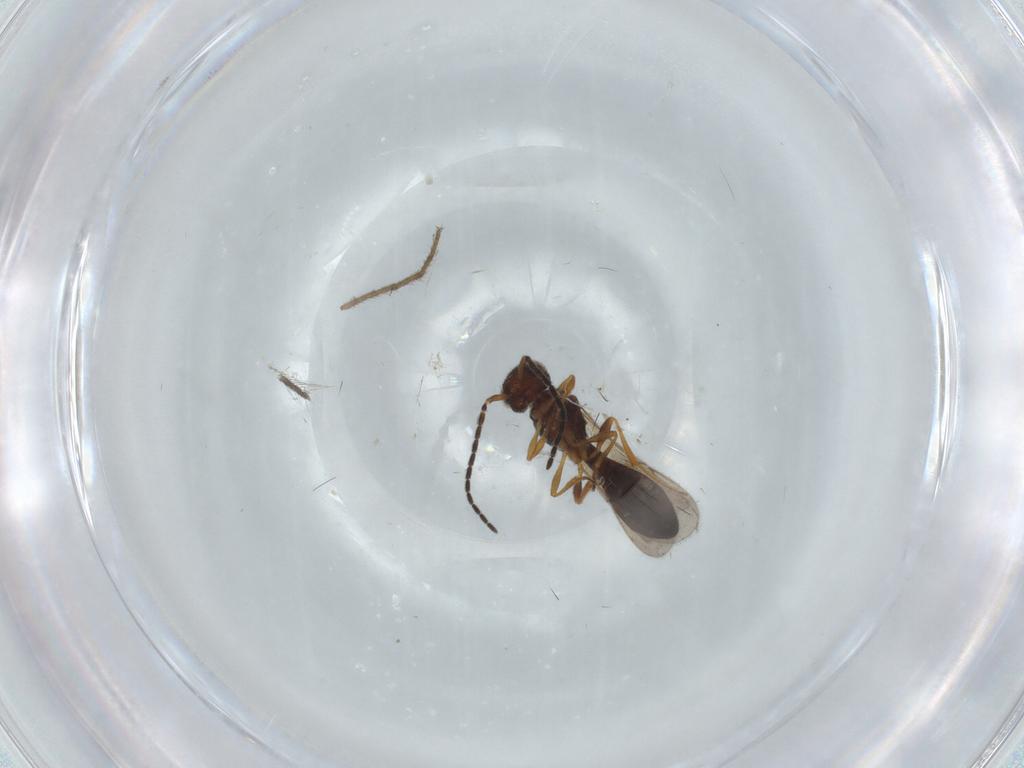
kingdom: Animalia
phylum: Arthropoda
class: Insecta
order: Hymenoptera
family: Scelionidae
